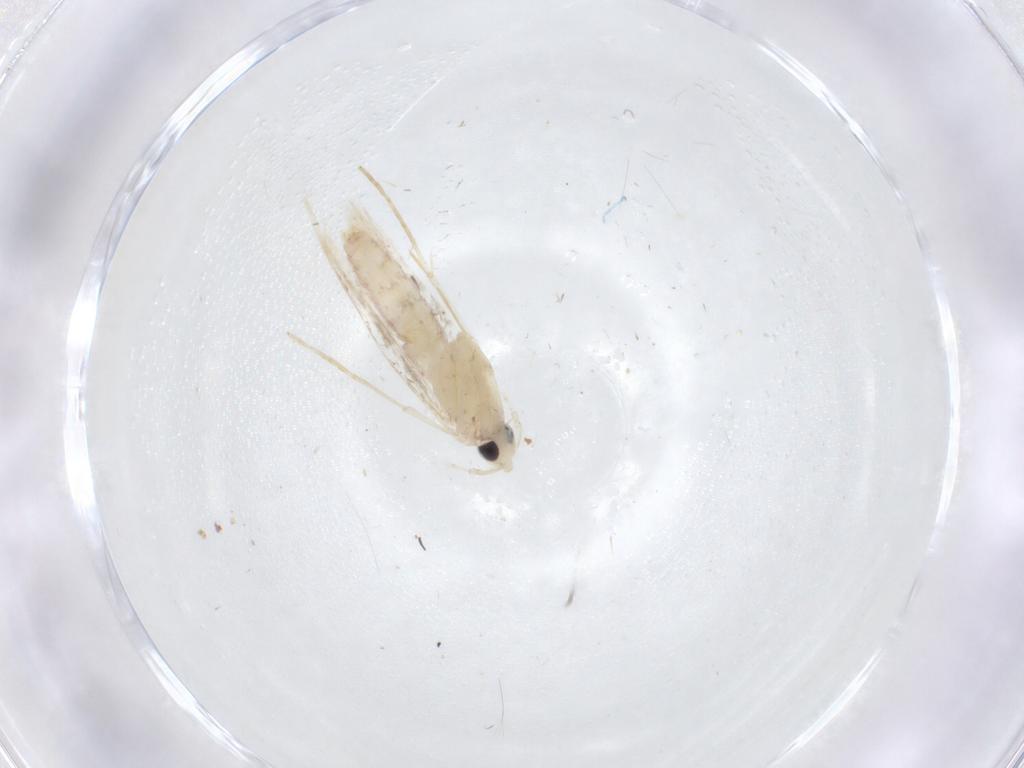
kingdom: Animalia
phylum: Arthropoda
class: Insecta
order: Lepidoptera
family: Tineidae
